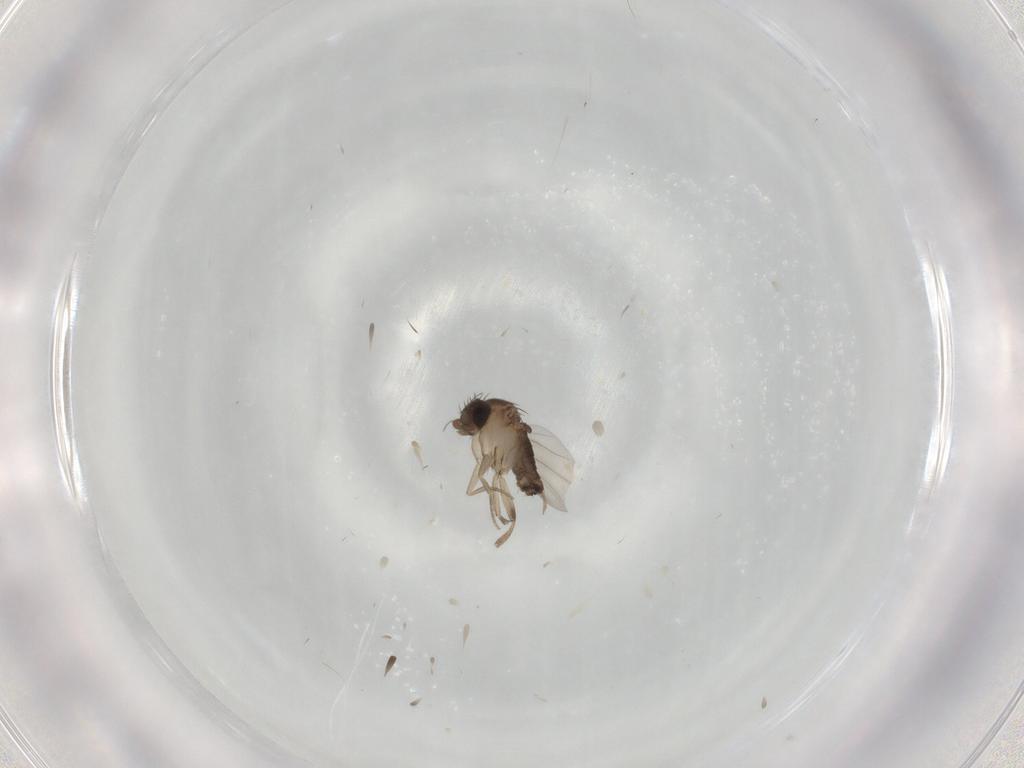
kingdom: Animalia
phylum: Arthropoda
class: Insecta
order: Diptera
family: Phoridae
